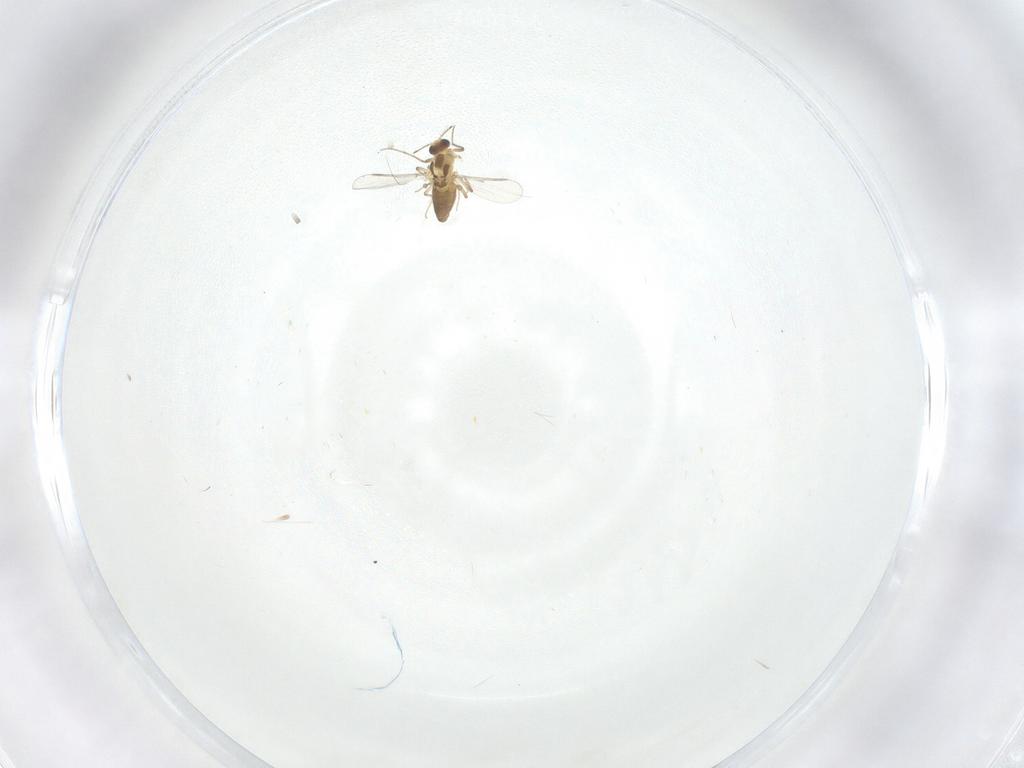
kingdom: Animalia
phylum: Arthropoda
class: Insecta
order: Diptera
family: Chironomidae
